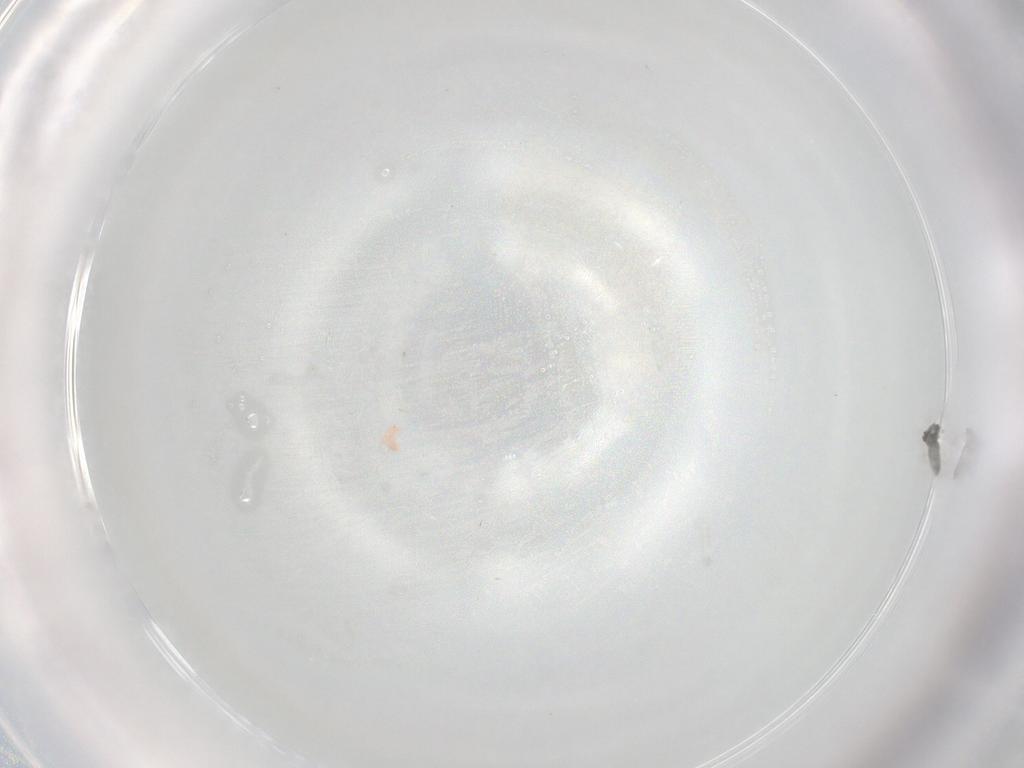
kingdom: Animalia
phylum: Arthropoda
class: Insecta
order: Diptera
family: Cecidomyiidae
